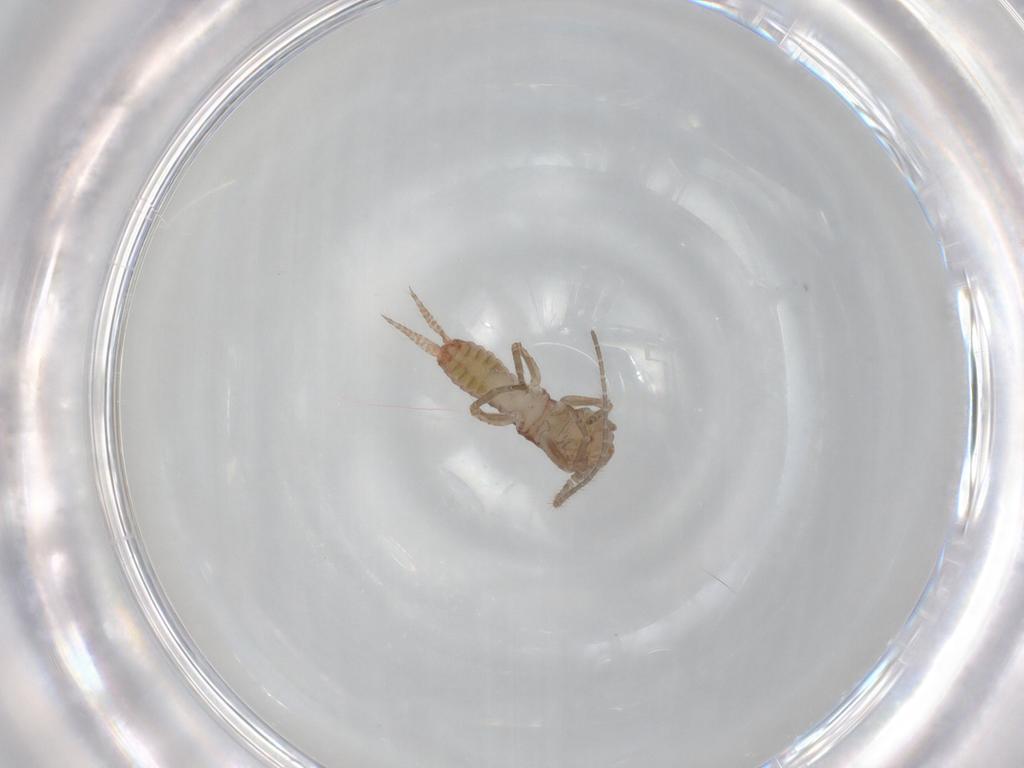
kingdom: Animalia
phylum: Arthropoda
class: Insecta
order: Orthoptera
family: Mogoplistidae
